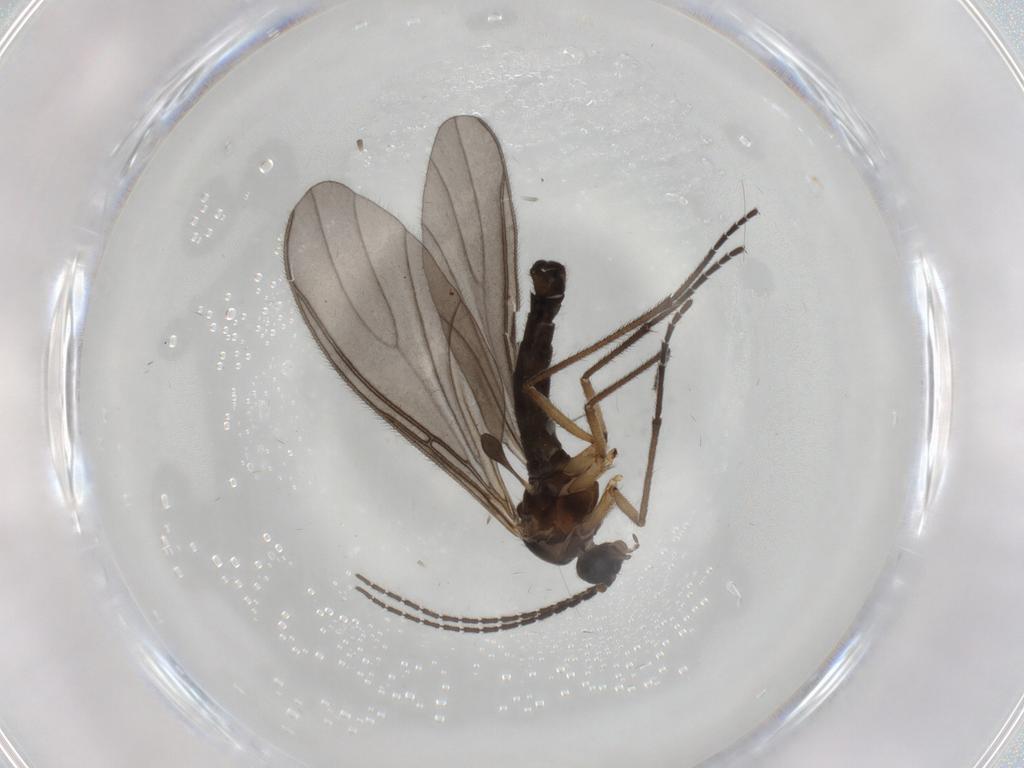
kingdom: Animalia
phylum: Arthropoda
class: Insecta
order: Diptera
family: Sciaridae
